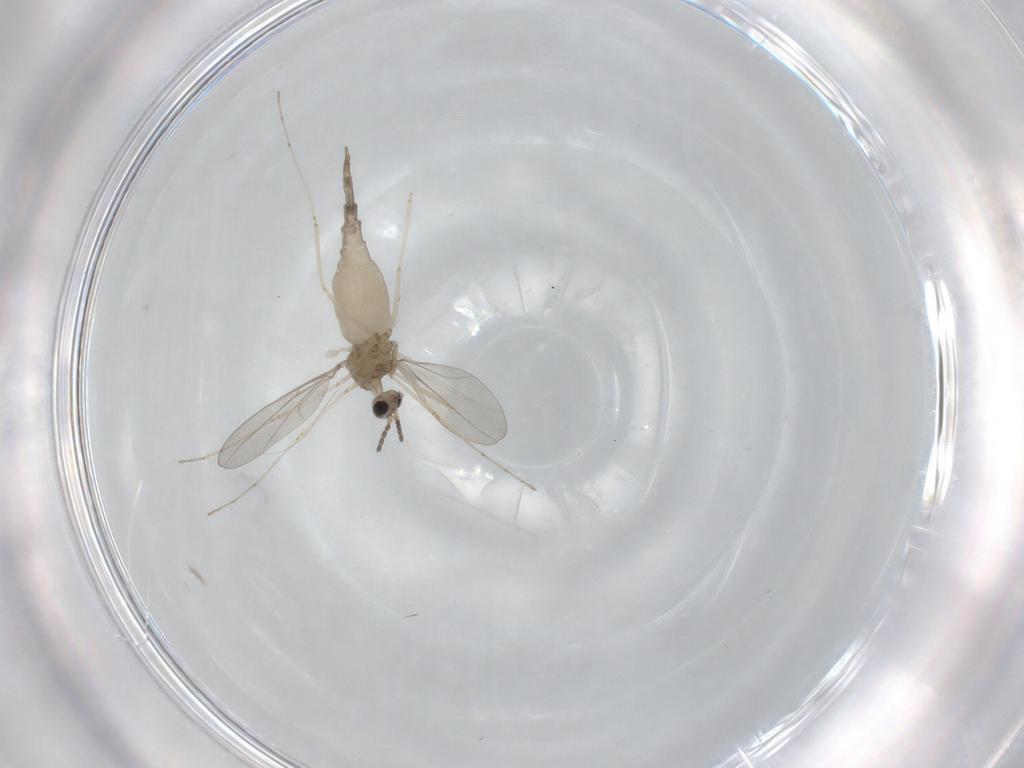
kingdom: Animalia
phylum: Arthropoda
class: Insecta
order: Diptera
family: Cecidomyiidae
